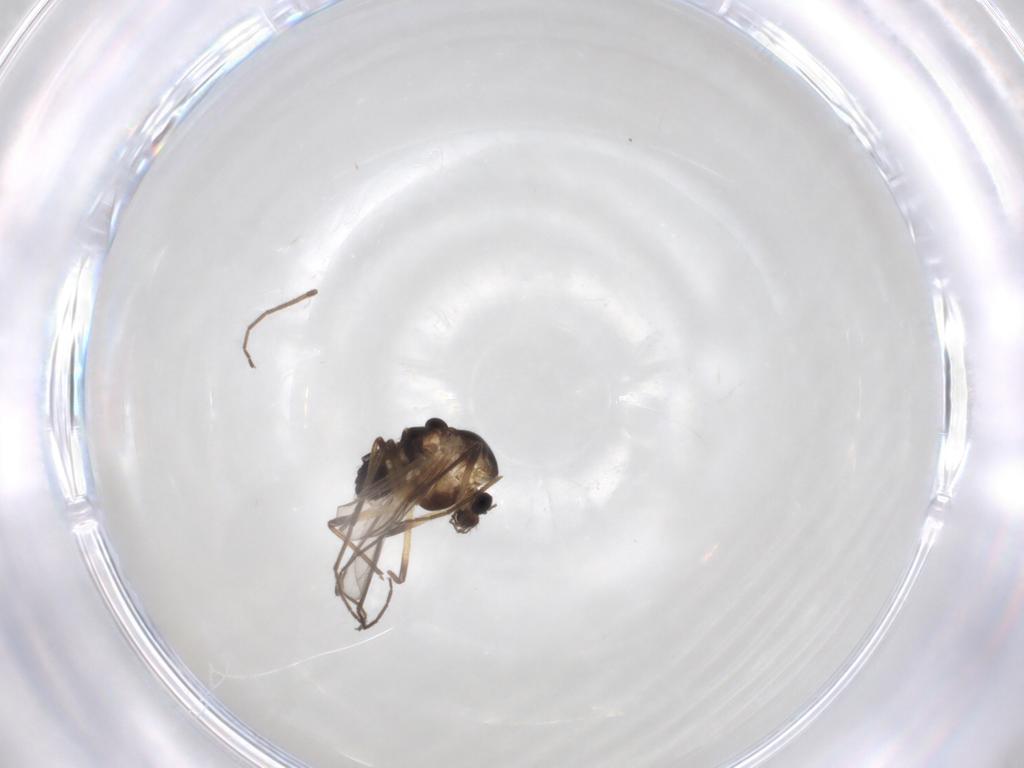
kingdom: Animalia
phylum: Arthropoda
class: Insecta
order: Diptera
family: Chironomidae
